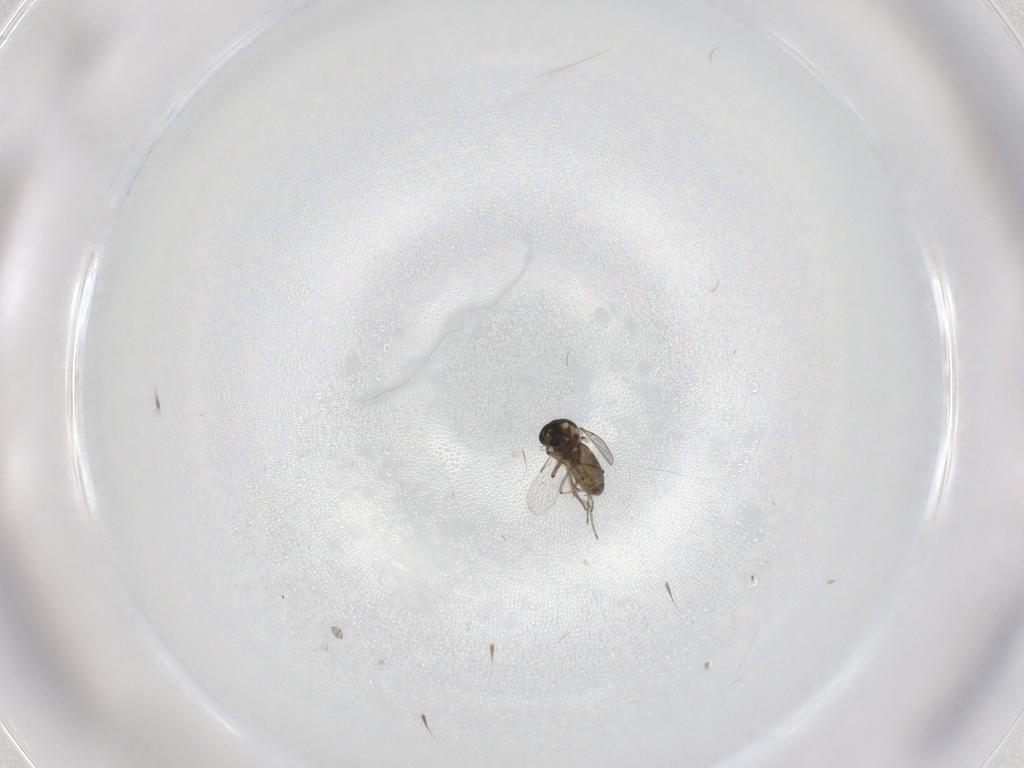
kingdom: Animalia
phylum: Arthropoda
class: Insecta
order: Diptera
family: Ceratopogonidae
